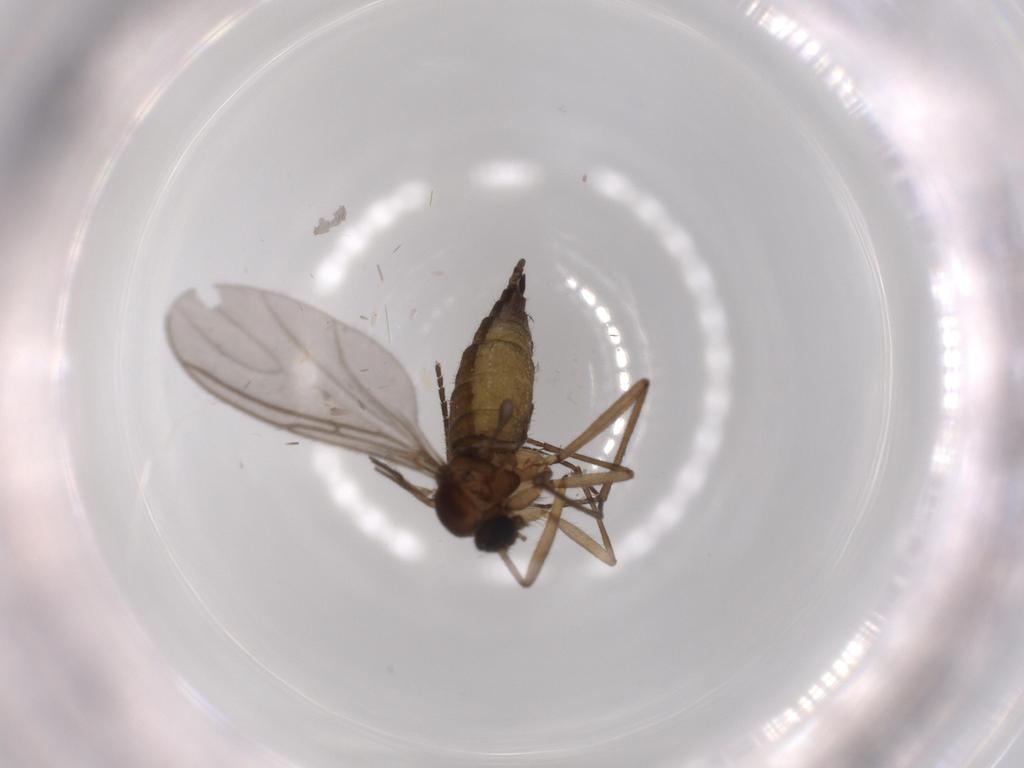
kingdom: Animalia
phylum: Arthropoda
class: Insecta
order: Diptera
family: Sciaridae
